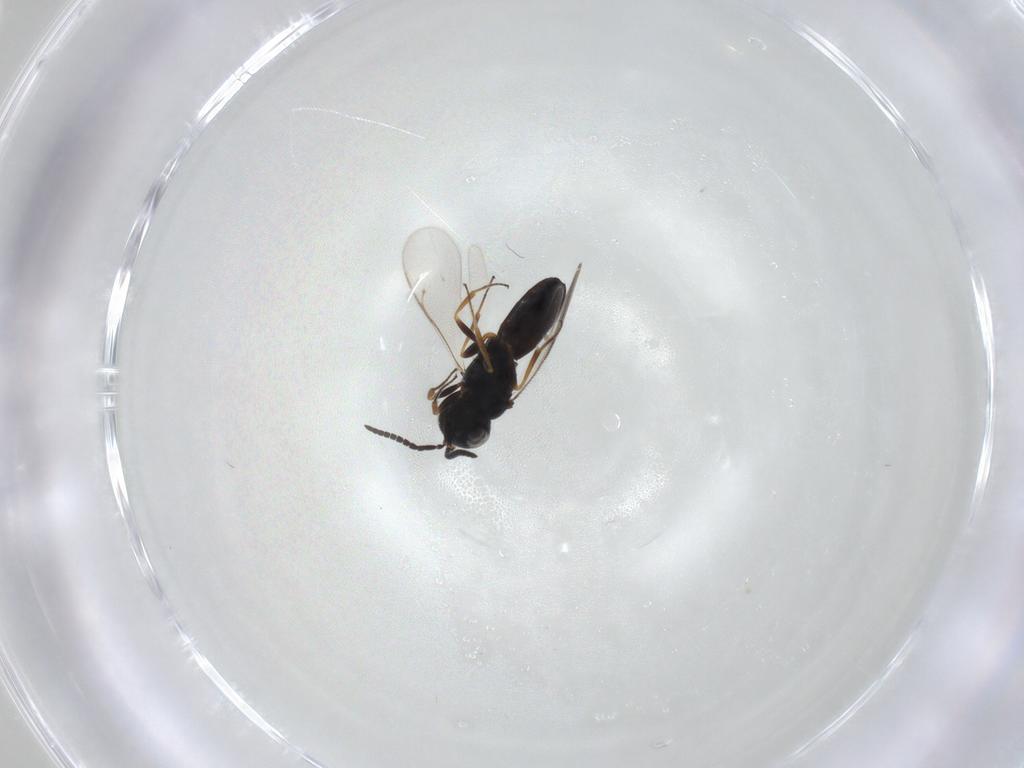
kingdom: Animalia
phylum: Arthropoda
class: Insecta
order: Hymenoptera
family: Scelionidae
